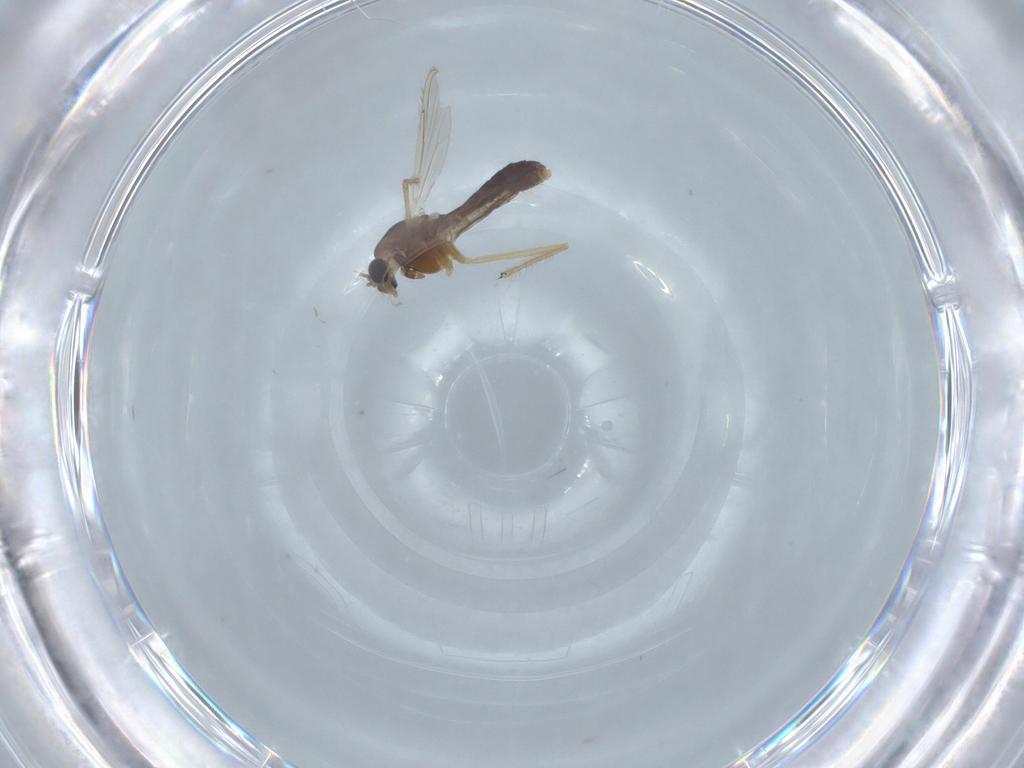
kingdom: Animalia
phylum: Arthropoda
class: Insecta
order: Diptera
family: Chironomidae
